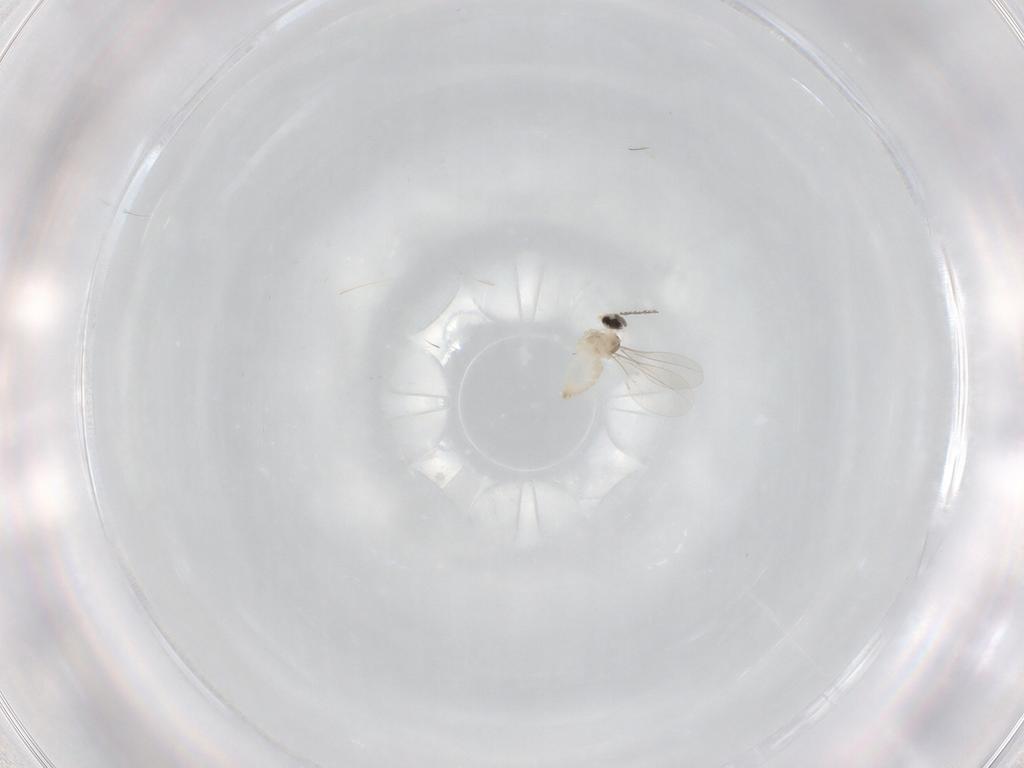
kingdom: Animalia
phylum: Arthropoda
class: Insecta
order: Diptera
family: Cecidomyiidae
